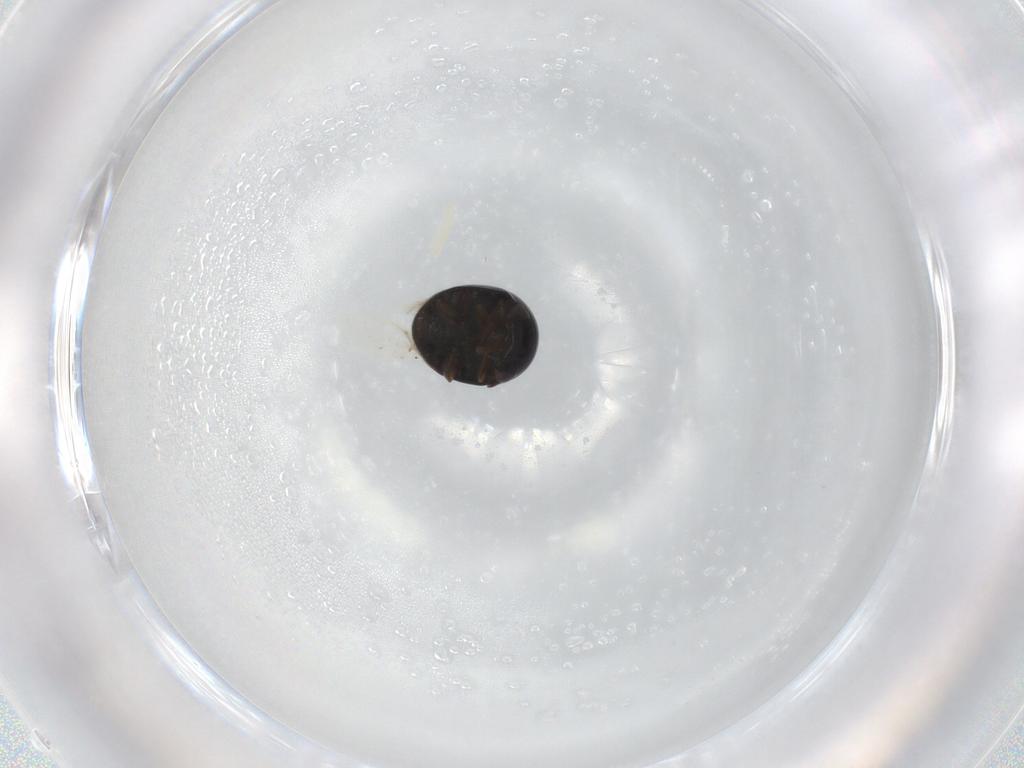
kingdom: Animalia
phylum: Arthropoda
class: Insecta
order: Coleoptera
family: Cybocephalidae
